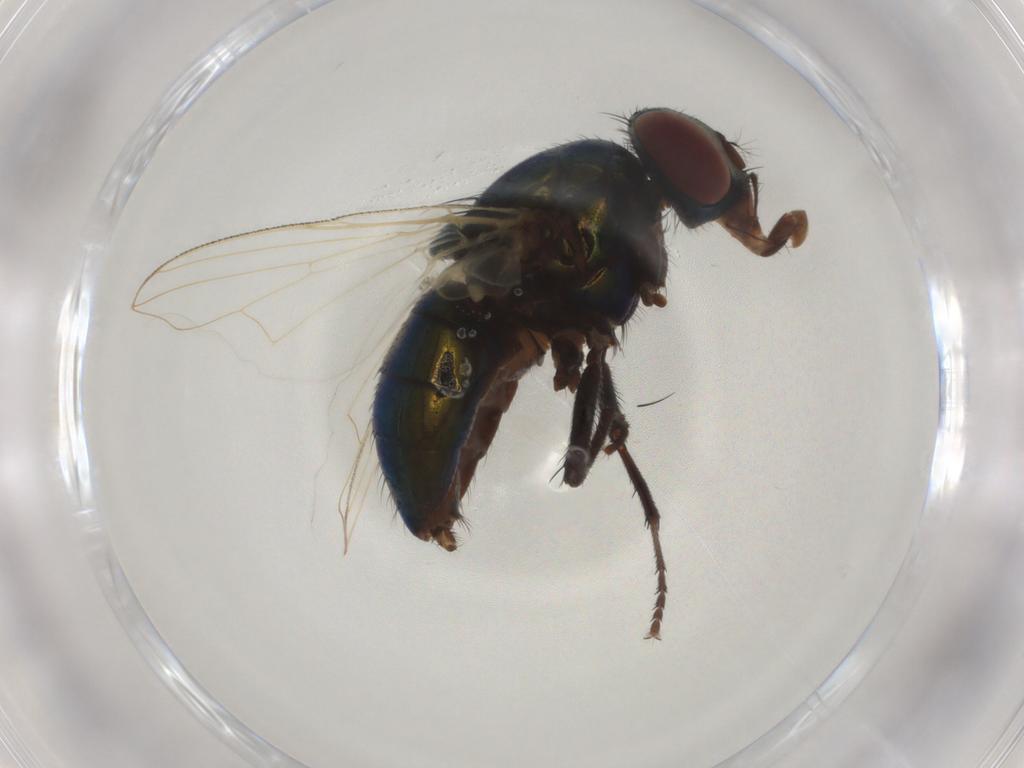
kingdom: Animalia
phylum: Arthropoda
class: Insecta
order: Diptera
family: Muscidae
